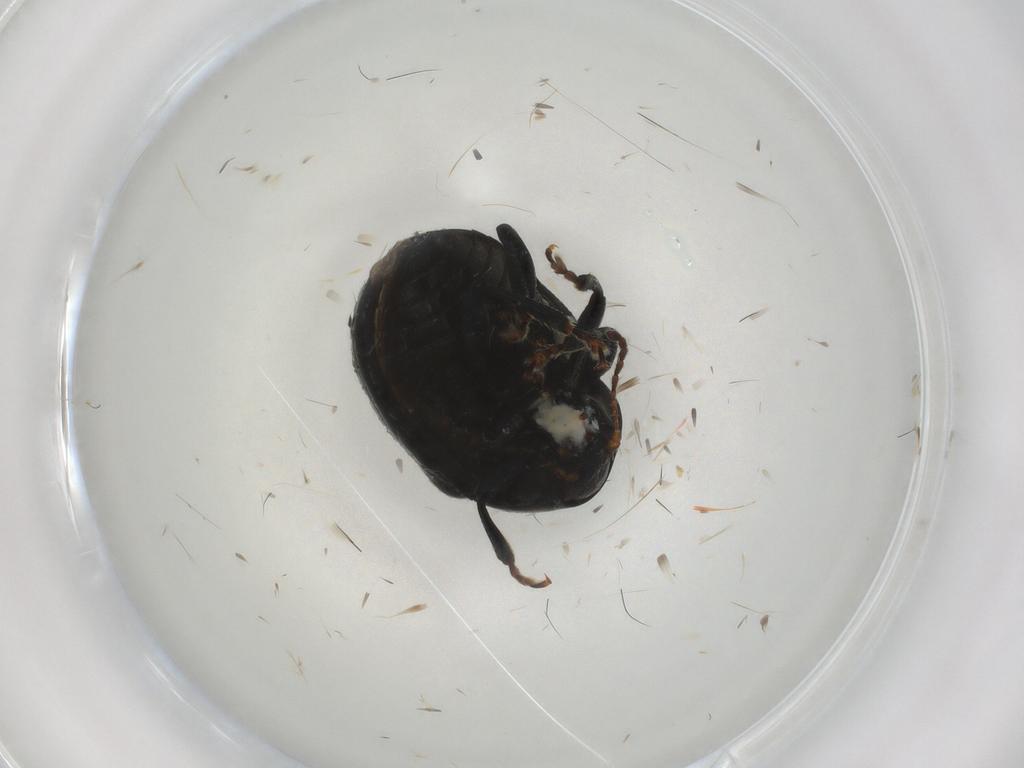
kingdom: Animalia
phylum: Arthropoda
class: Insecta
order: Coleoptera
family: Chrysomelidae
